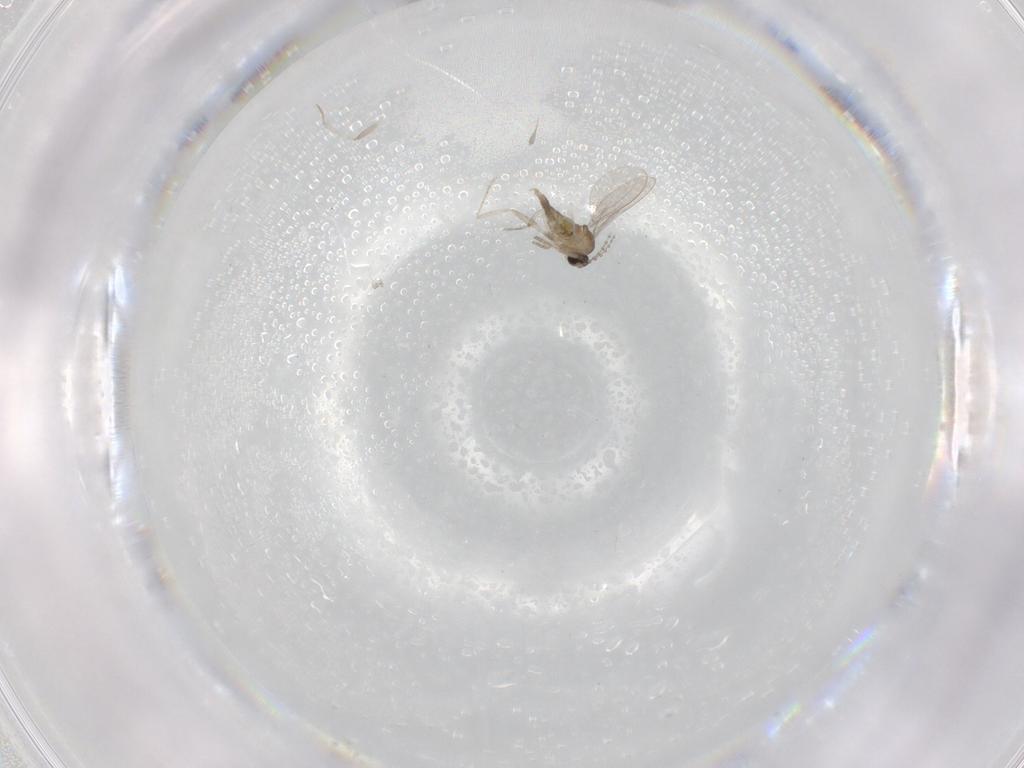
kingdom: Animalia
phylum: Arthropoda
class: Insecta
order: Diptera
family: Cecidomyiidae
